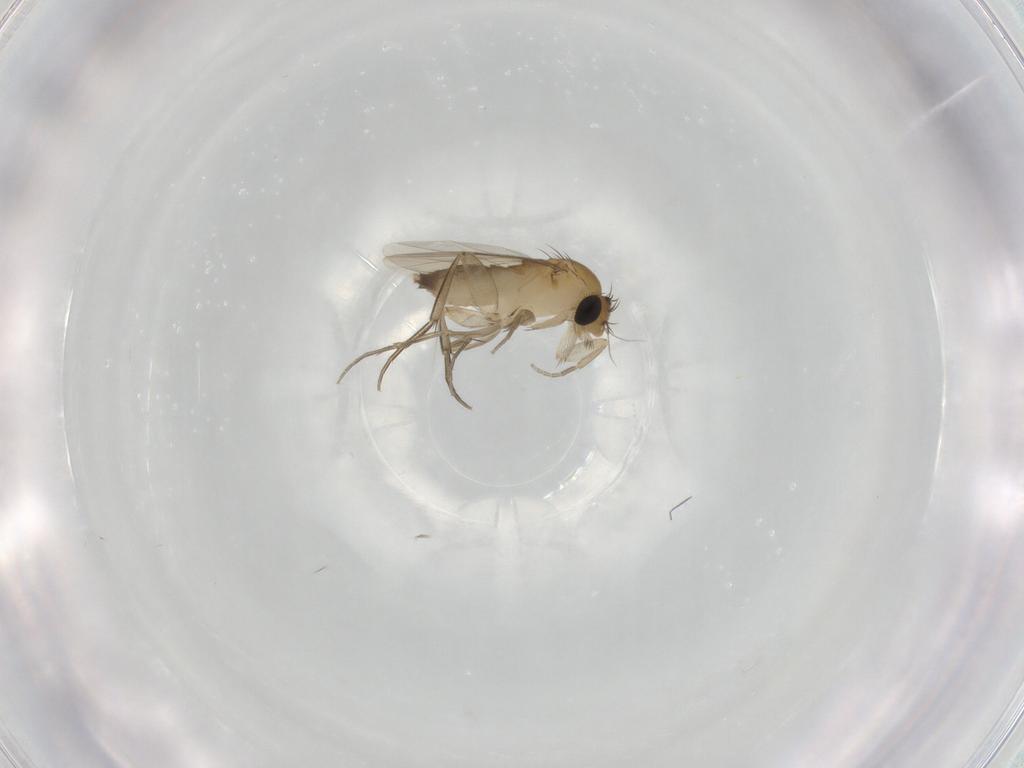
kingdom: Animalia
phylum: Arthropoda
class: Insecta
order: Diptera
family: Phoridae
